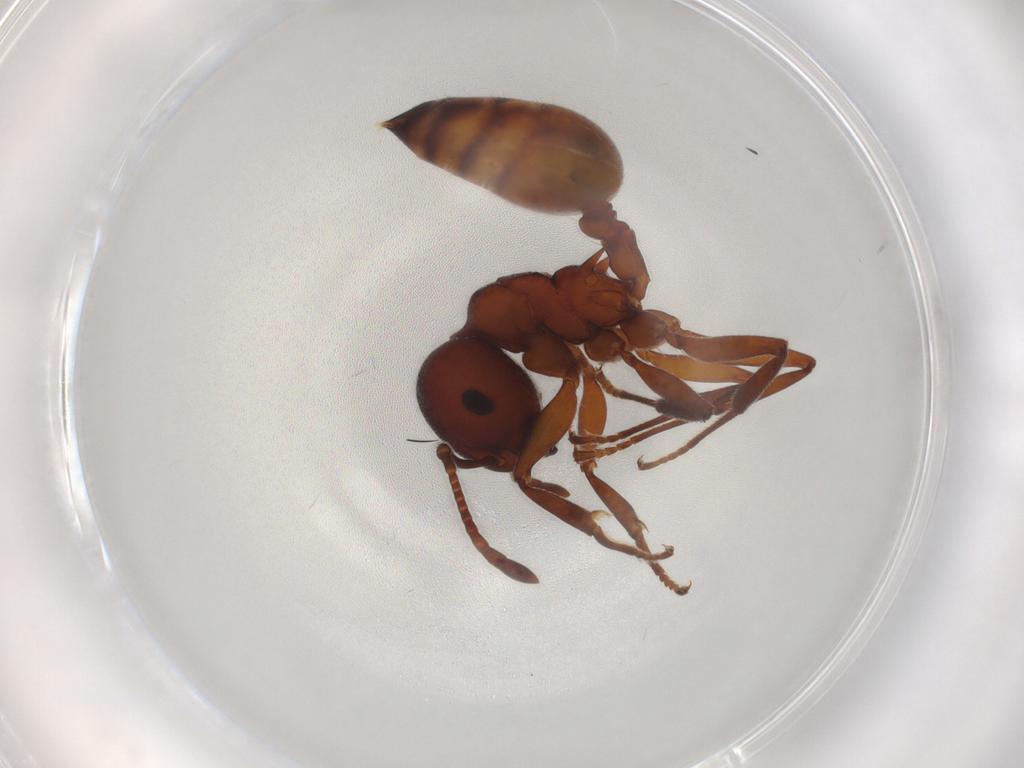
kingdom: Animalia
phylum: Arthropoda
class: Insecta
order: Hymenoptera
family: Formicidae
